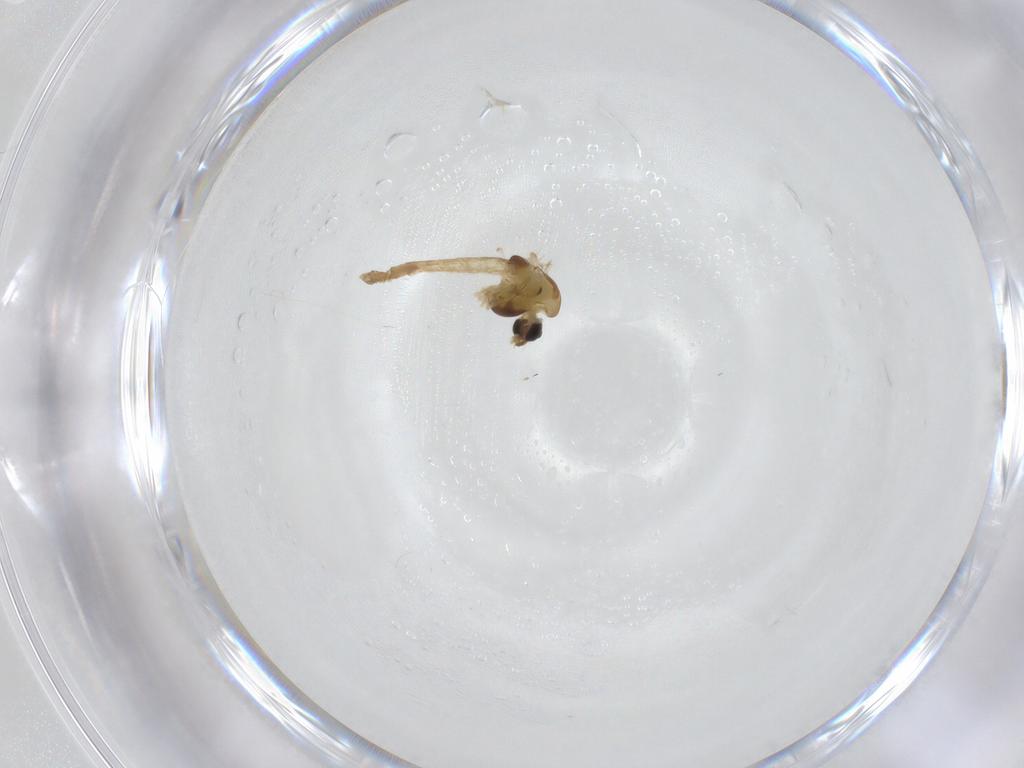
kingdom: Animalia
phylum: Arthropoda
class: Insecta
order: Diptera
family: Chironomidae
